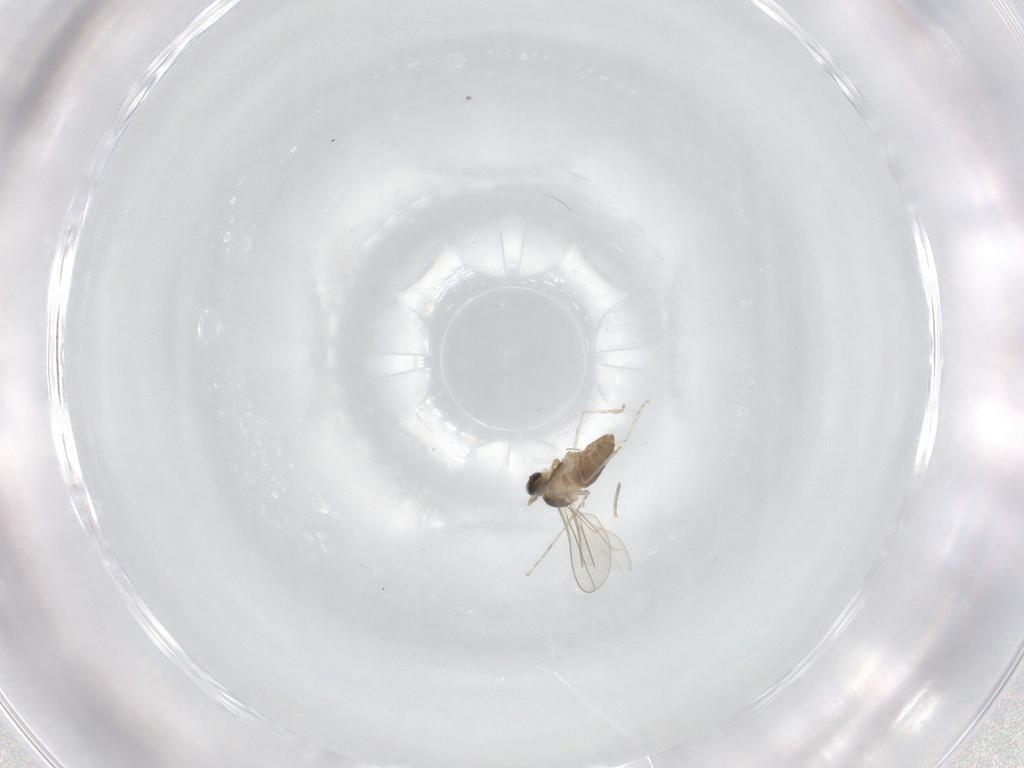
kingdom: Animalia
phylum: Arthropoda
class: Insecta
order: Diptera
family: Cecidomyiidae
